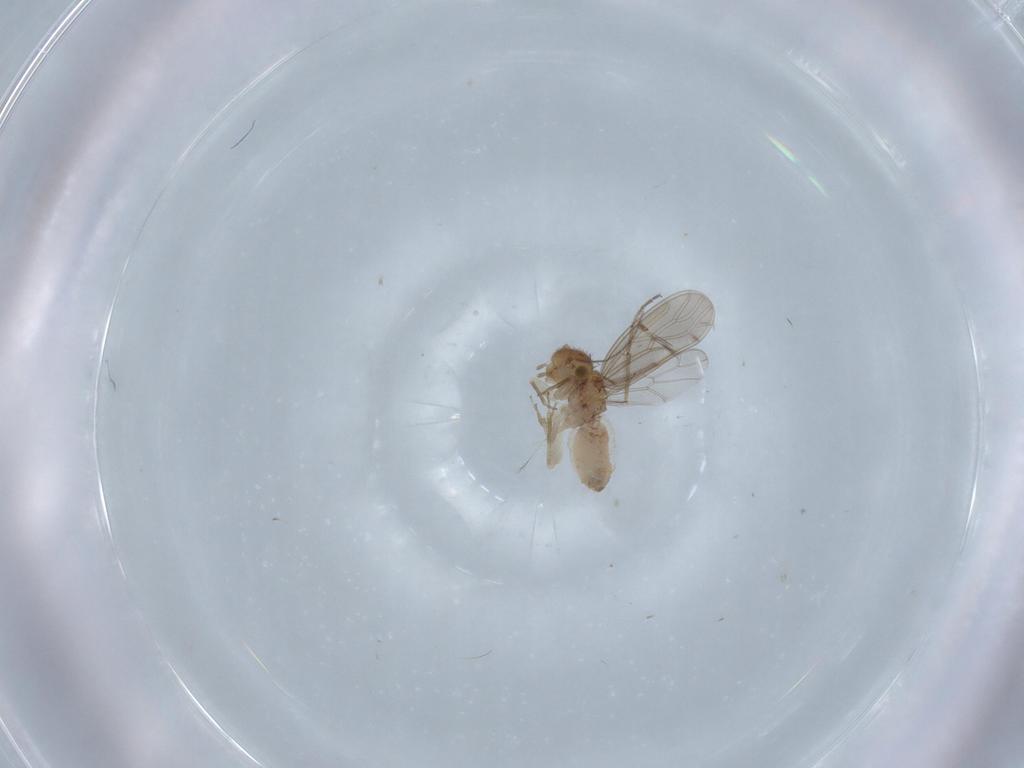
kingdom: Animalia
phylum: Arthropoda
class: Insecta
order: Psocodea
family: Ectopsocidae
